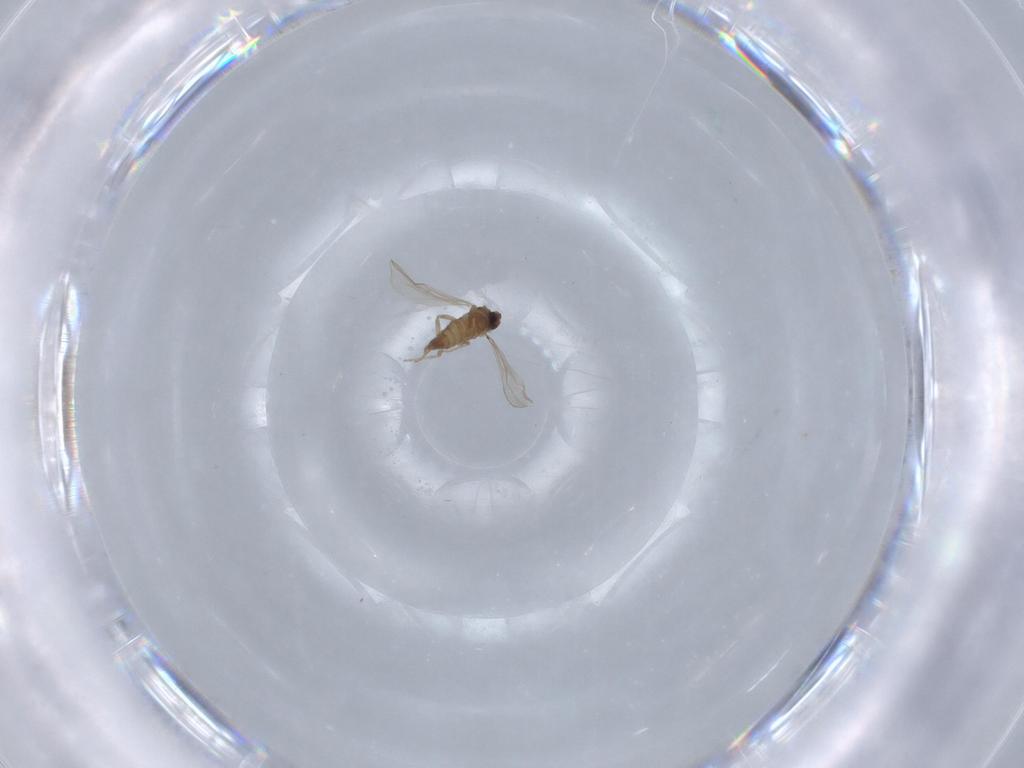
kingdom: Animalia
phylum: Arthropoda
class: Insecta
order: Diptera
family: Cecidomyiidae
